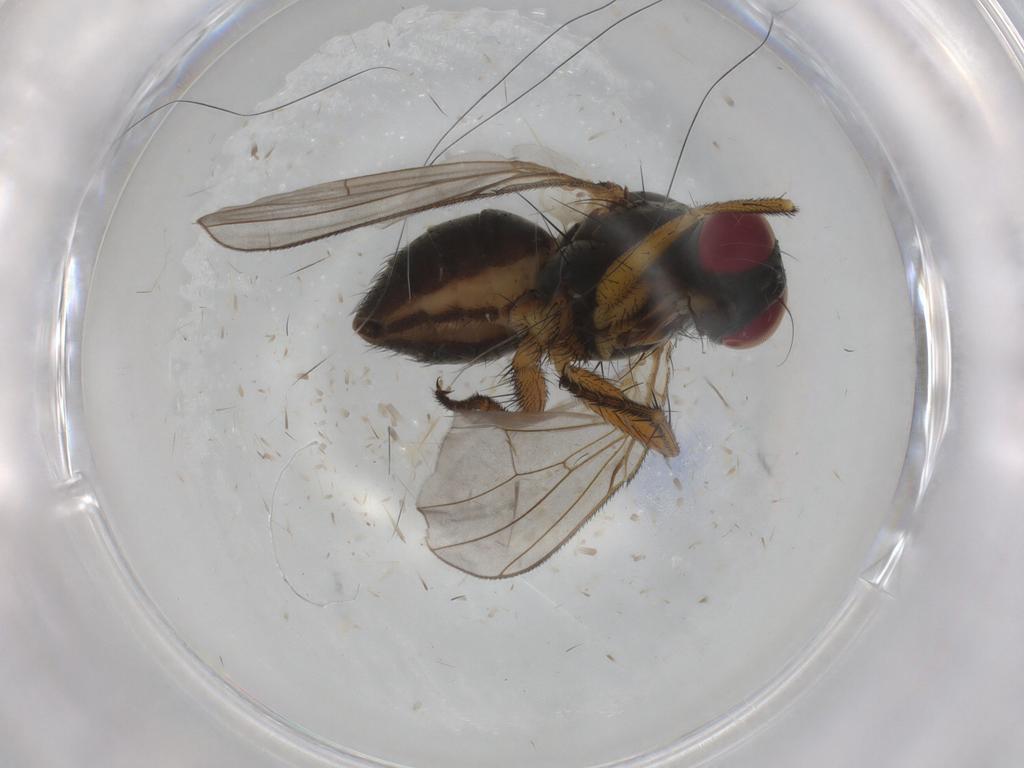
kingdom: Animalia
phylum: Arthropoda
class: Insecta
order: Diptera
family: Muscidae
